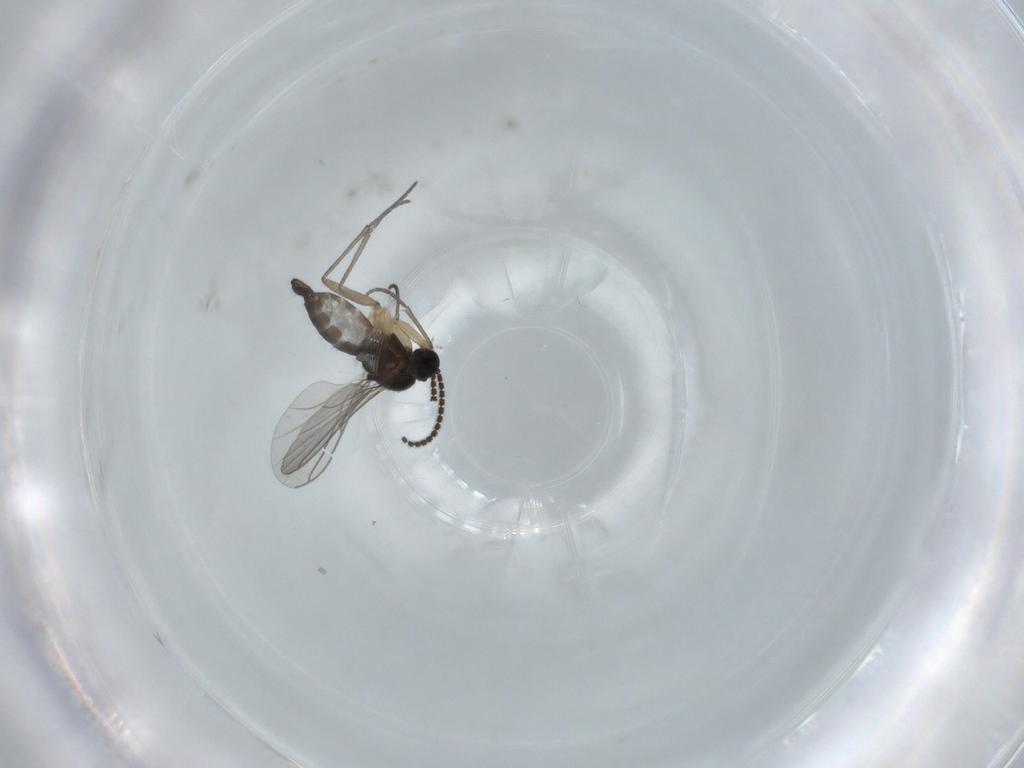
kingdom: Animalia
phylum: Arthropoda
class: Insecta
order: Diptera
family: Sciaridae
